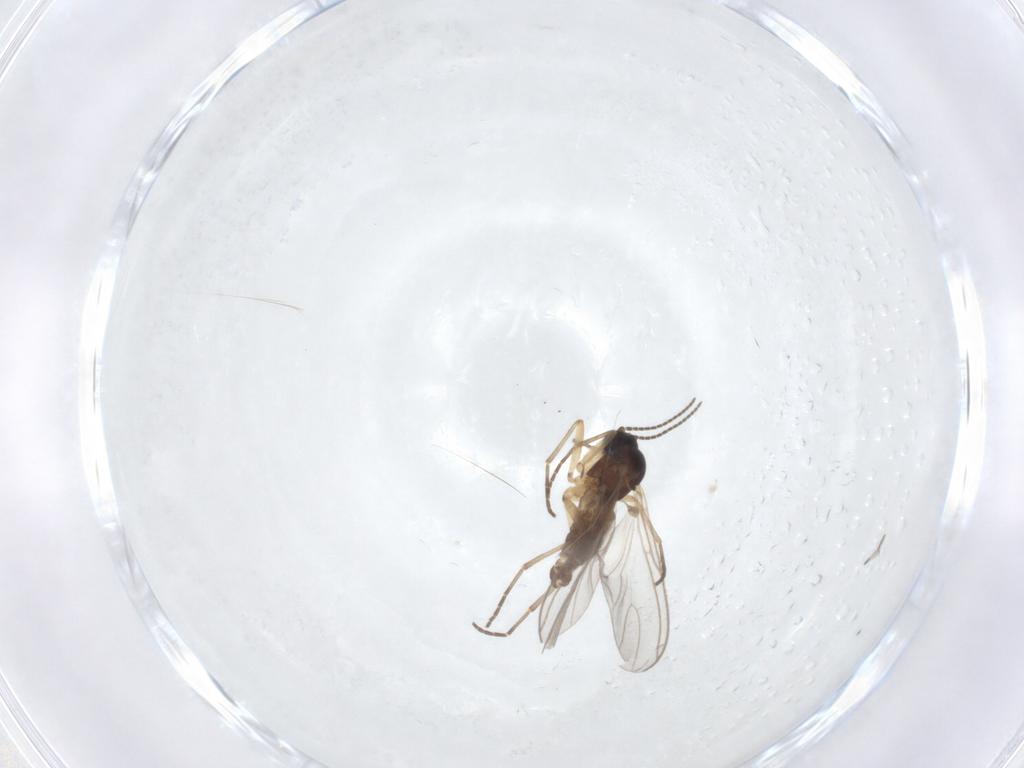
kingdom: Animalia
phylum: Arthropoda
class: Insecta
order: Diptera
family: Sciaridae
